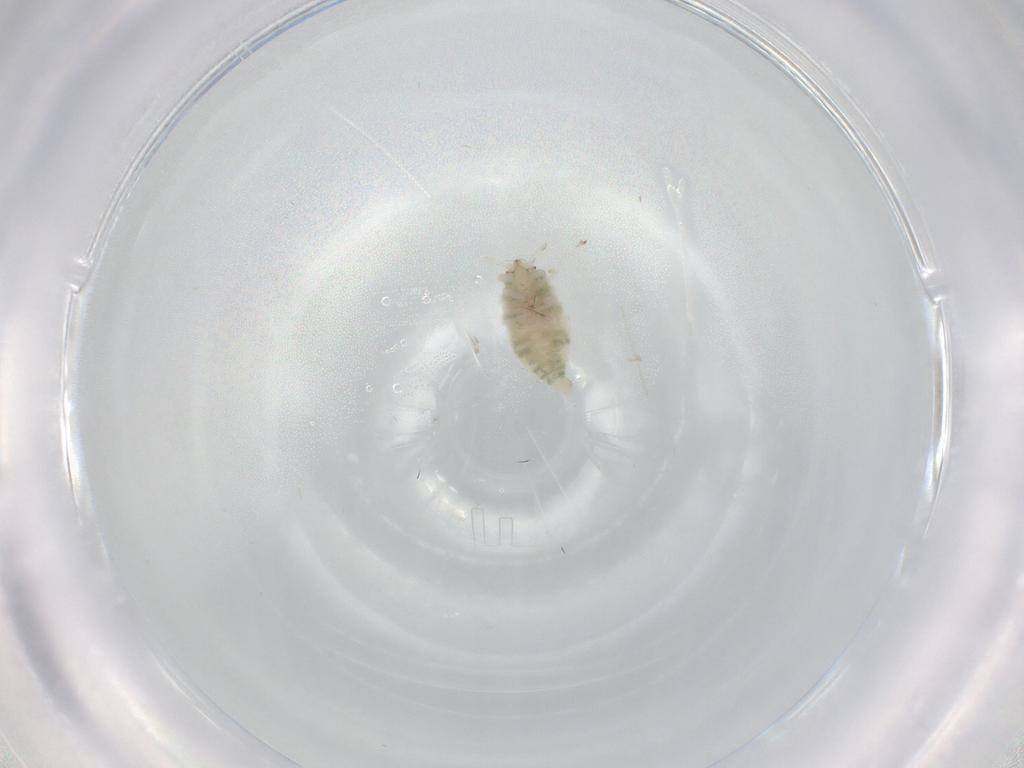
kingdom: Animalia
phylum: Arthropoda
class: Insecta
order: Neuroptera
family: Coniopterygidae
